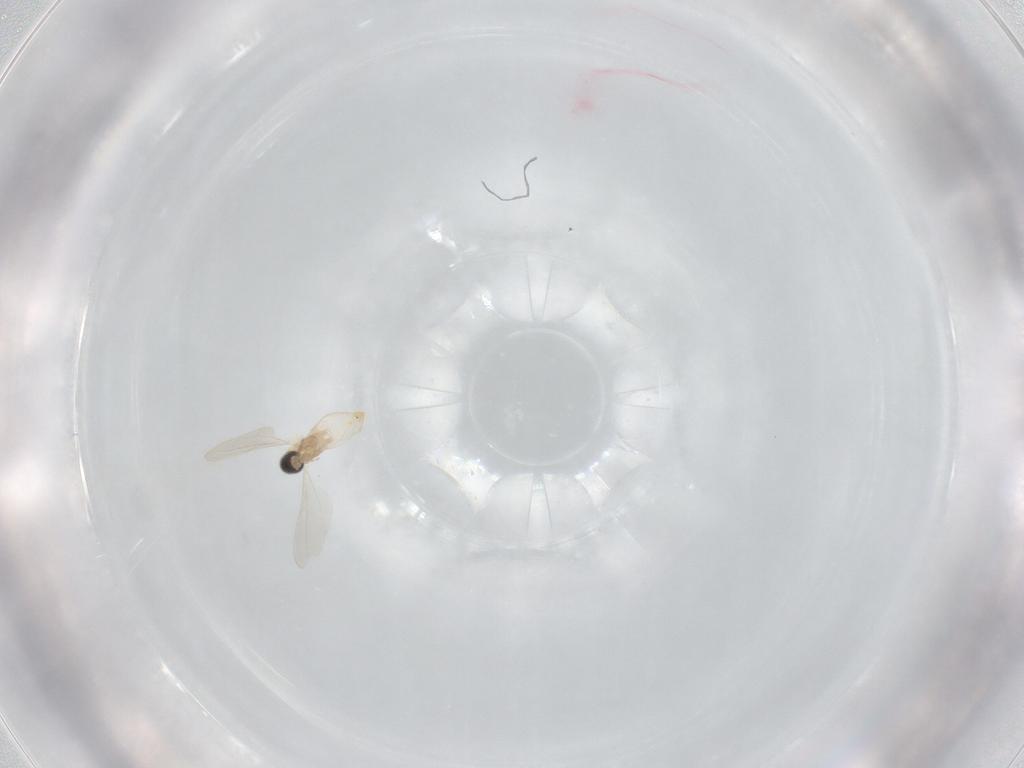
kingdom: Animalia
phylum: Arthropoda
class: Insecta
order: Diptera
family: Cecidomyiidae
